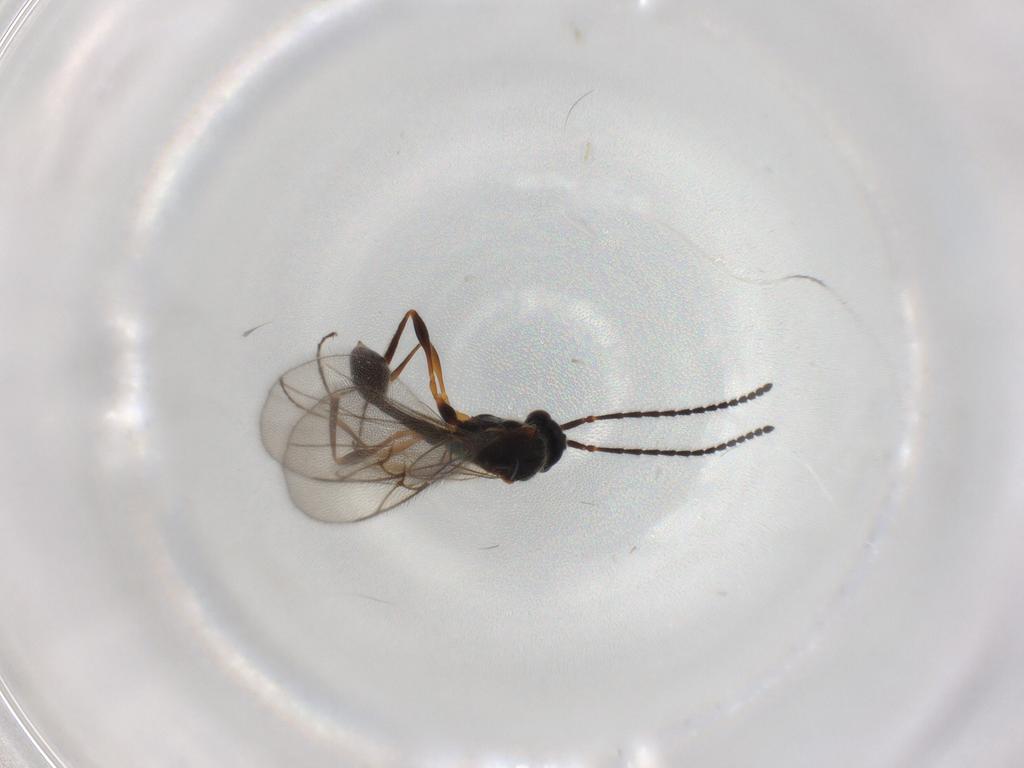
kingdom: Animalia
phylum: Arthropoda
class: Insecta
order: Hymenoptera
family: Diapriidae
